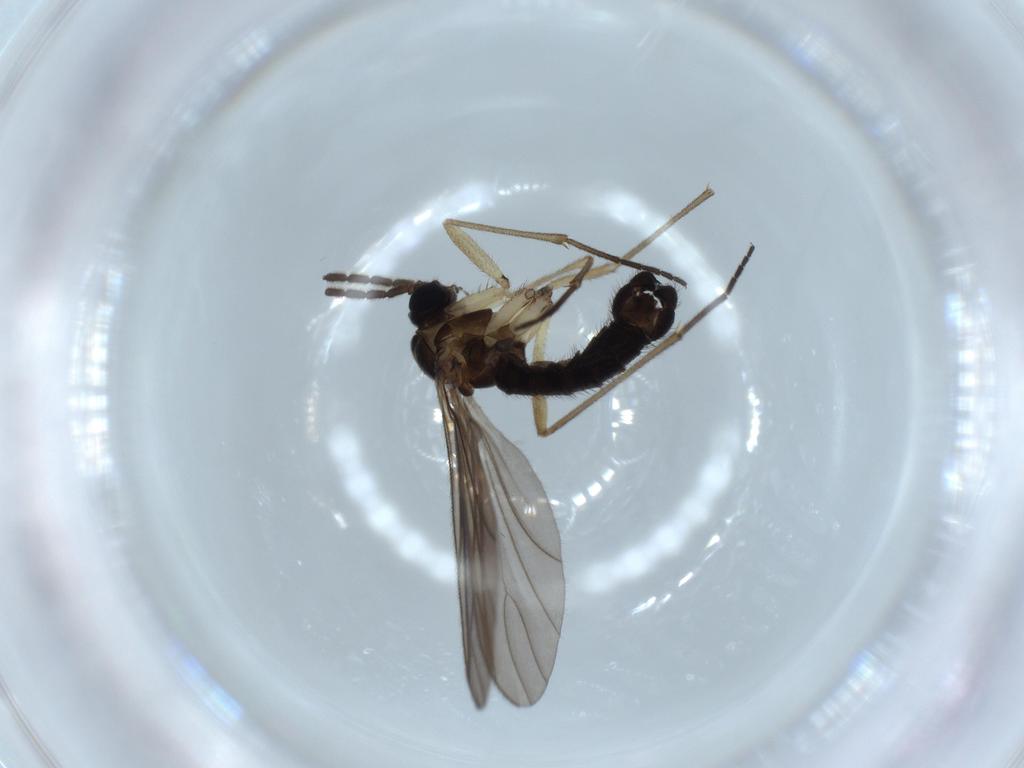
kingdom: Animalia
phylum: Arthropoda
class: Insecta
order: Diptera
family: Sciaridae
